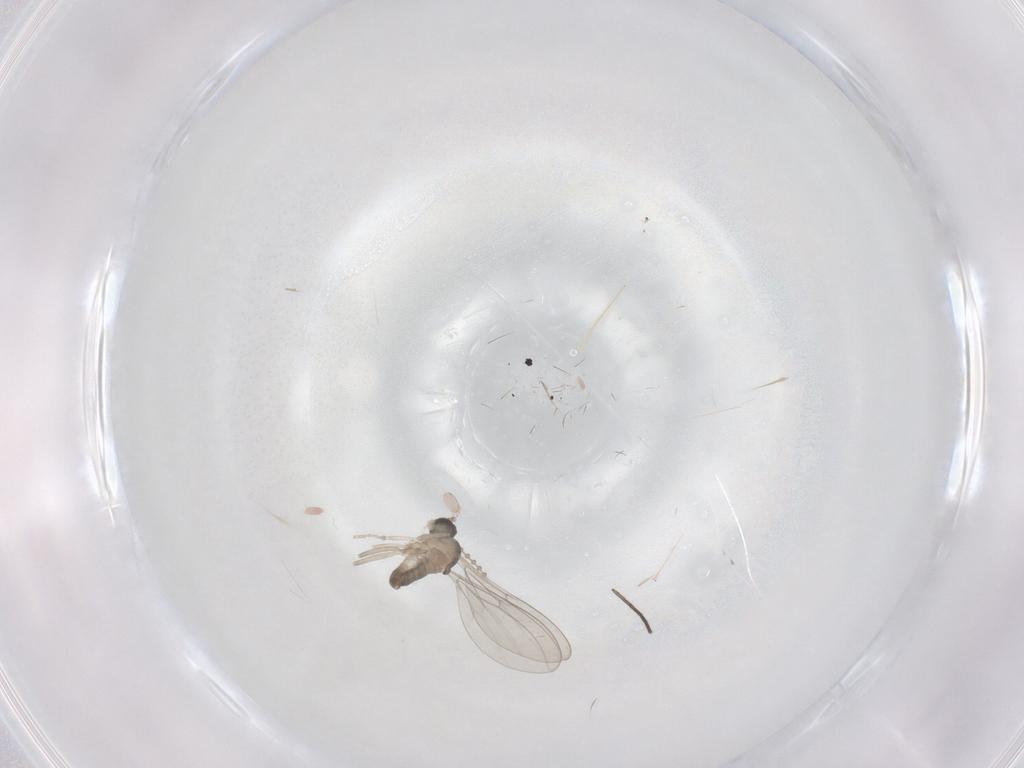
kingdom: Animalia
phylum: Arthropoda
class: Insecta
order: Diptera
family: Cecidomyiidae
